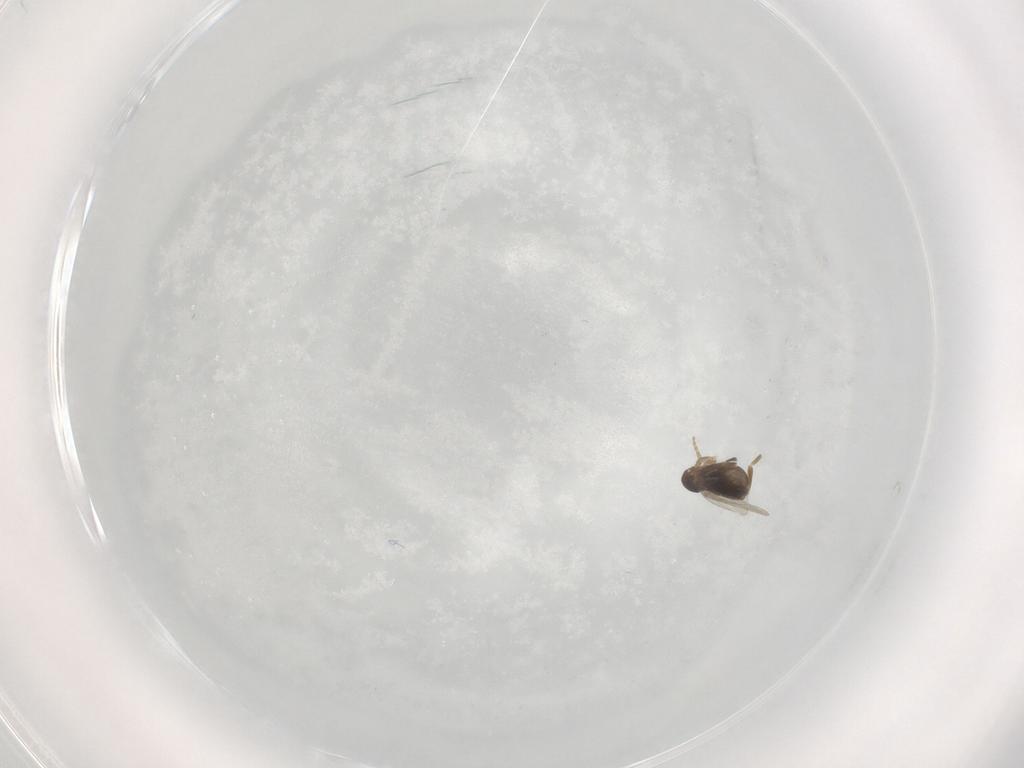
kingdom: Animalia
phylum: Arthropoda
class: Insecta
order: Diptera
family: Phoridae
